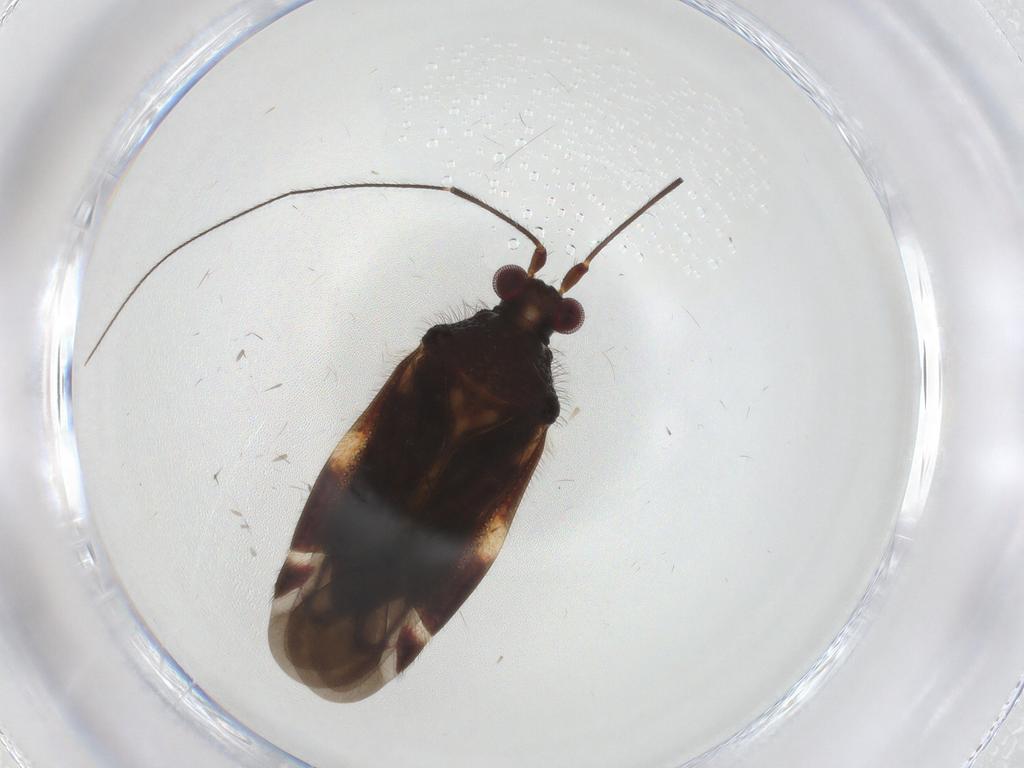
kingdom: Animalia
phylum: Arthropoda
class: Insecta
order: Hemiptera
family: Miridae
